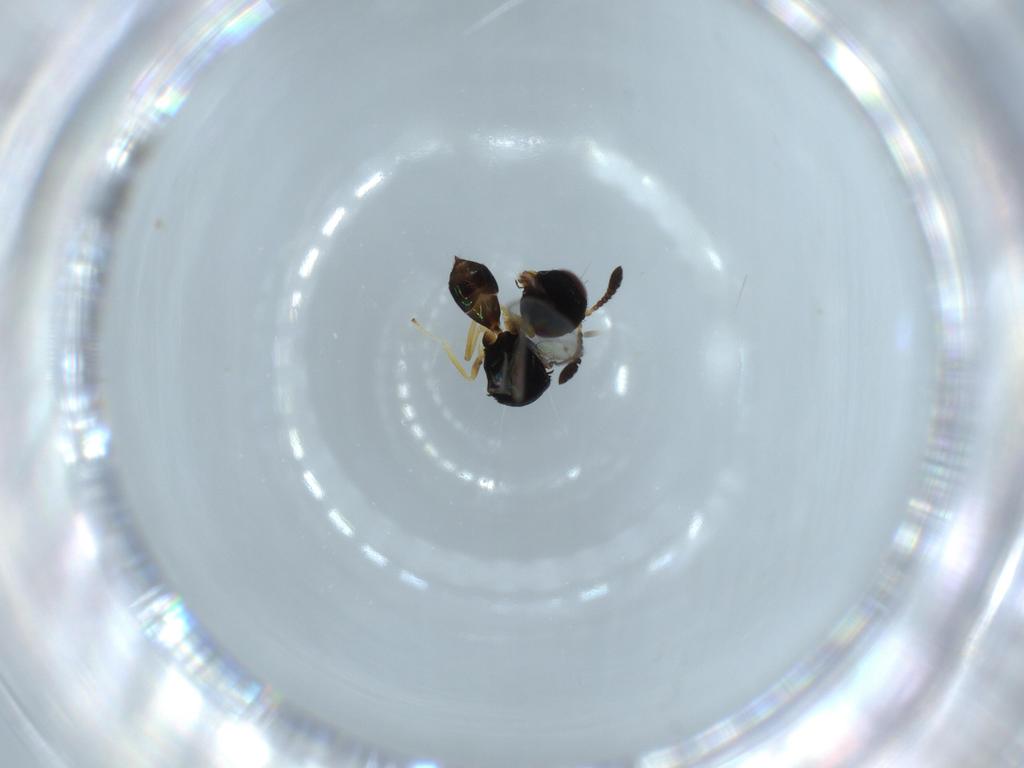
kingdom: Animalia
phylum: Arthropoda
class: Insecta
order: Hymenoptera
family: Pteromalidae
